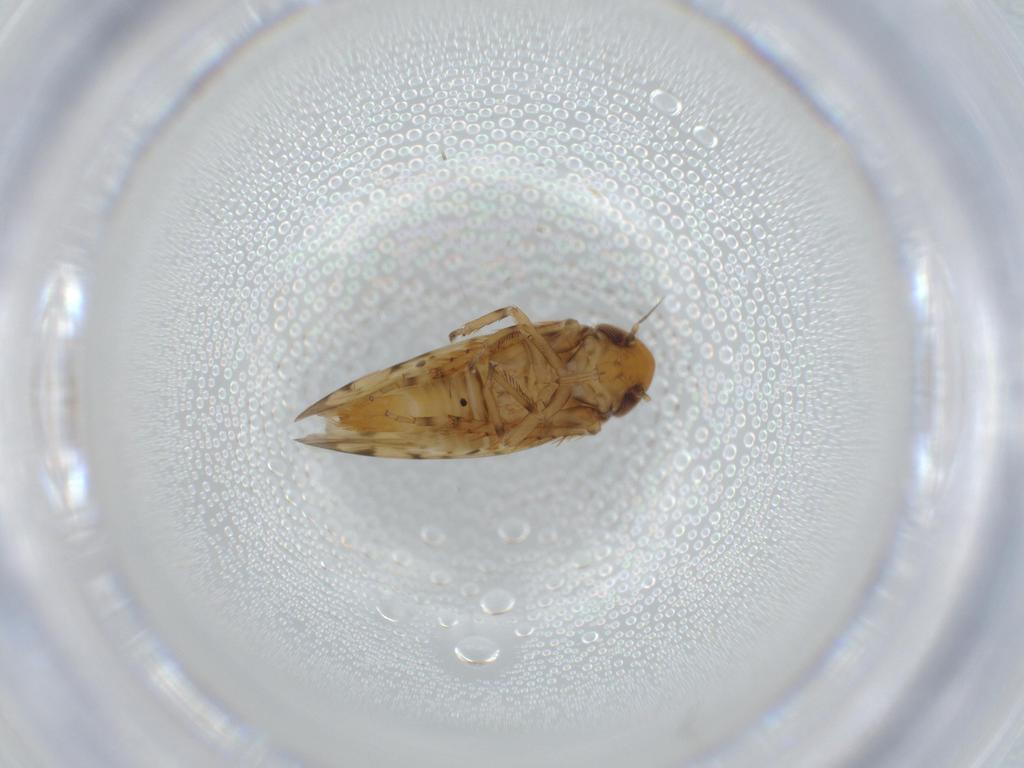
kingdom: Animalia
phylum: Arthropoda
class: Insecta
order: Hemiptera
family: Cicadellidae
